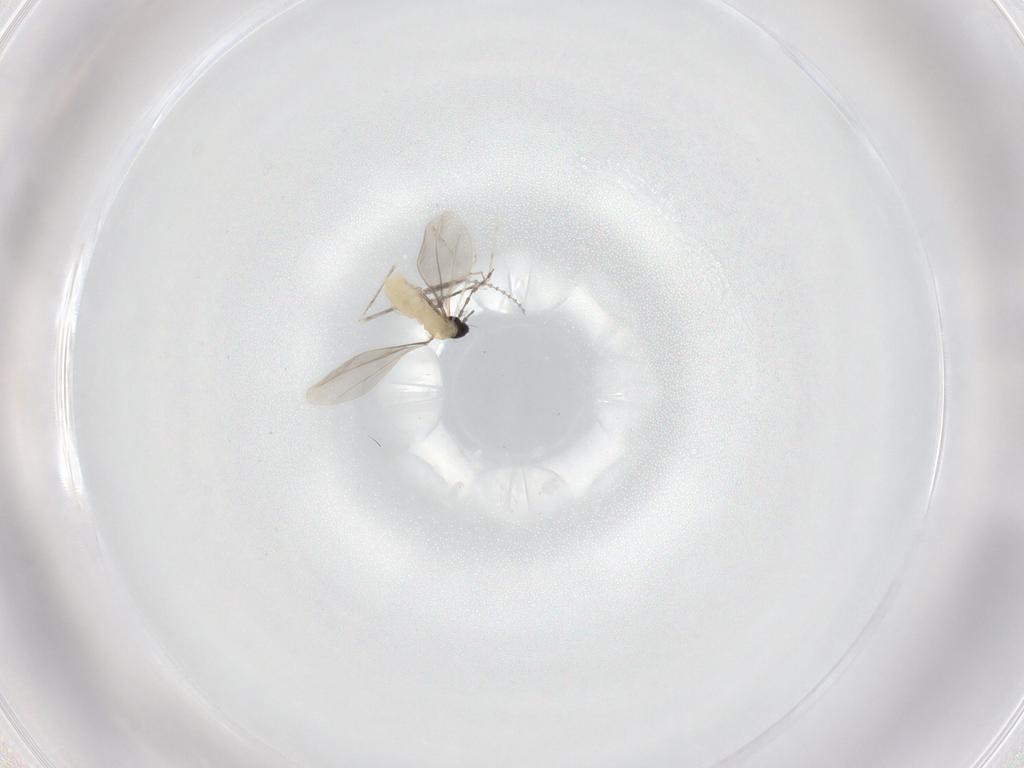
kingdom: Animalia
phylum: Arthropoda
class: Insecta
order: Diptera
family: Cecidomyiidae
